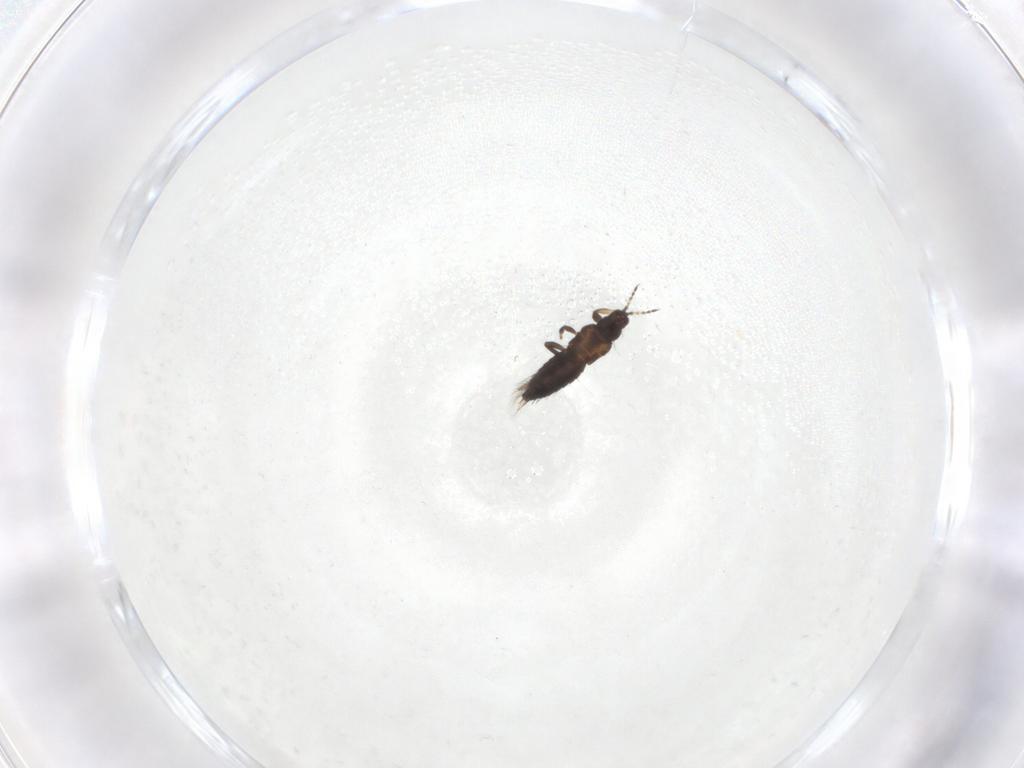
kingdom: Animalia
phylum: Arthropoda
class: Insecta
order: Thysanoptera
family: Thripidae
